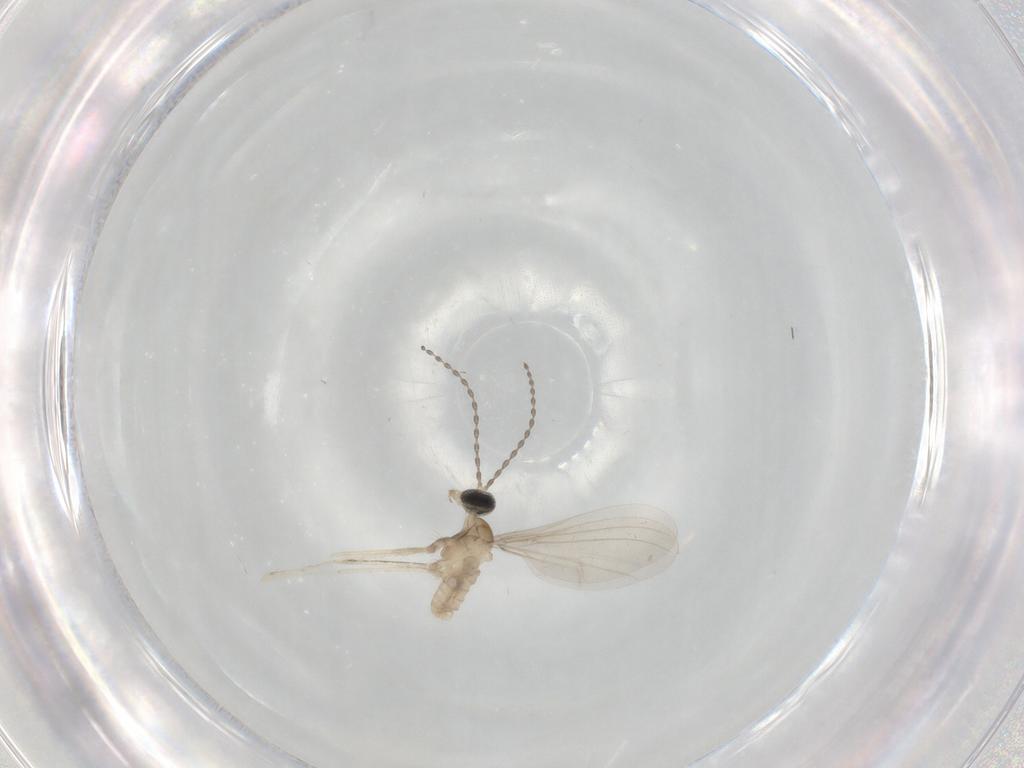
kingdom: Animalia
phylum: Arthropoda
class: Insecta
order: Diptera
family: Cecidomyiidae
